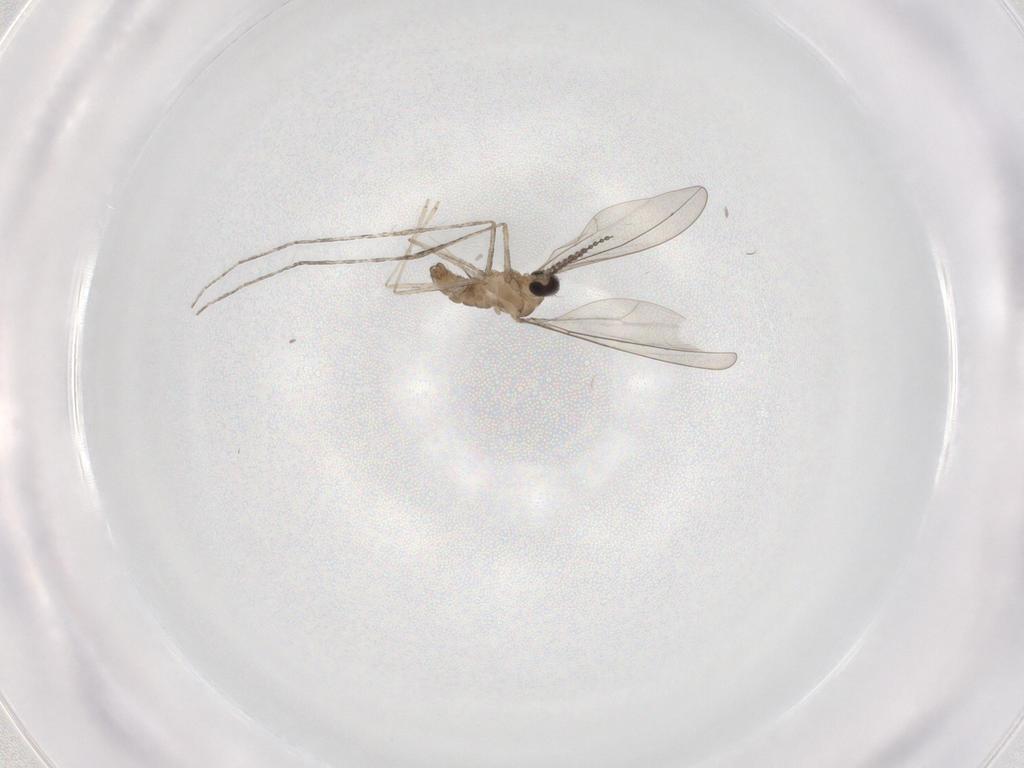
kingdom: Animalia
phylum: Arthropoda
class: Insecta
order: Diptera
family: Cecidomyiidae
